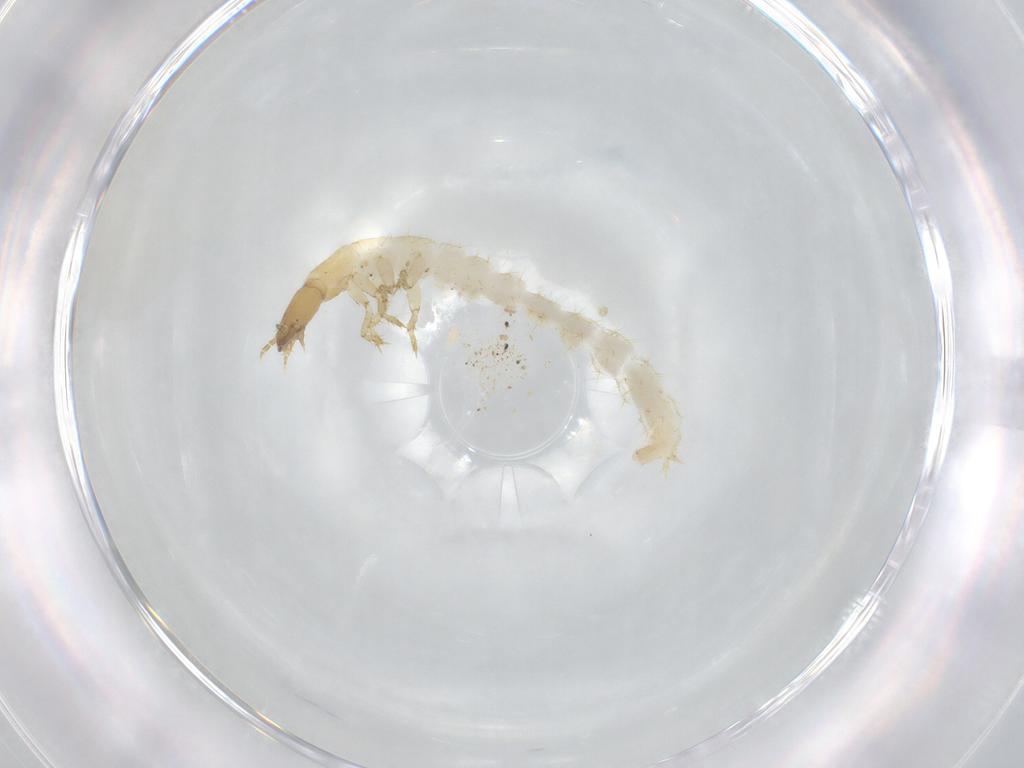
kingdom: Animalia
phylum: Arthropoda
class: Insecta
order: Coleoptera
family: Staphylinidae
